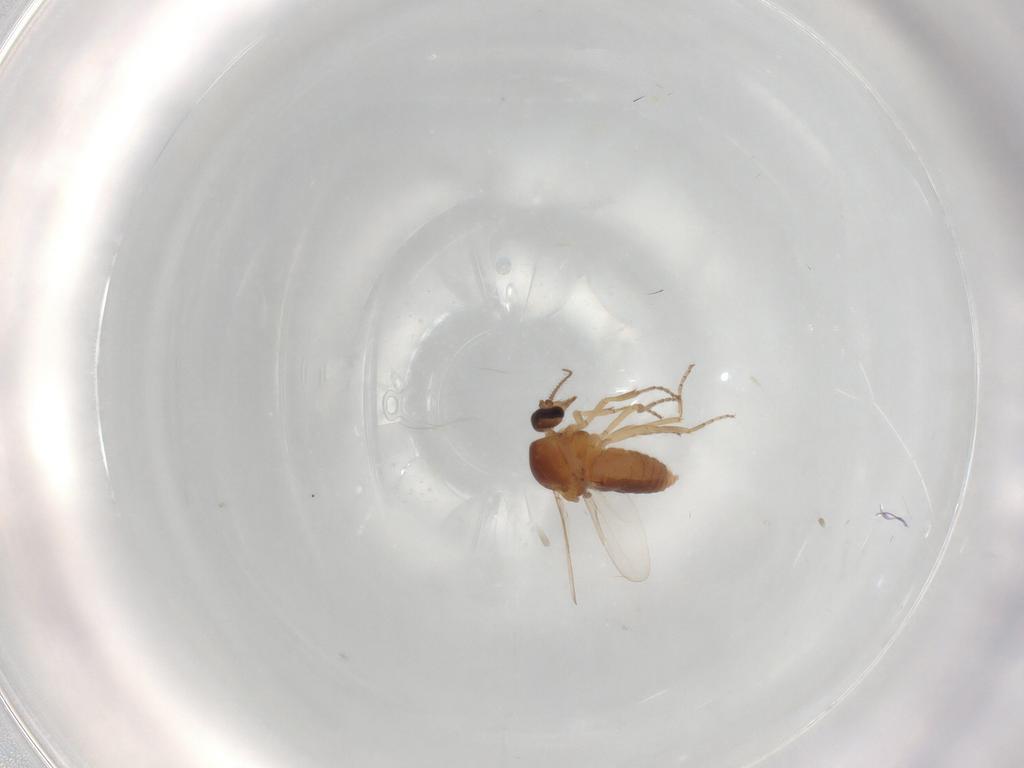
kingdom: Animalia
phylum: Arthropoda
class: Insecta
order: Diptera
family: Ceratopogonidae
